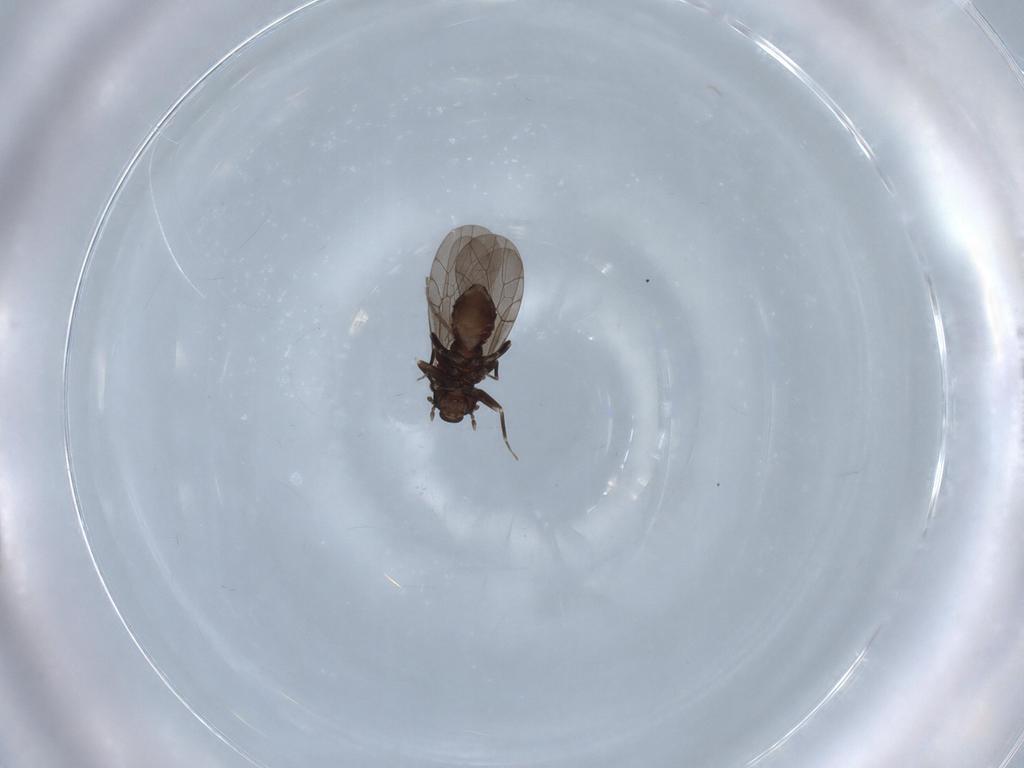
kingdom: Animalia
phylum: Arthropoda
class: Insecta
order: Psocodea
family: Lepidopsocidae
